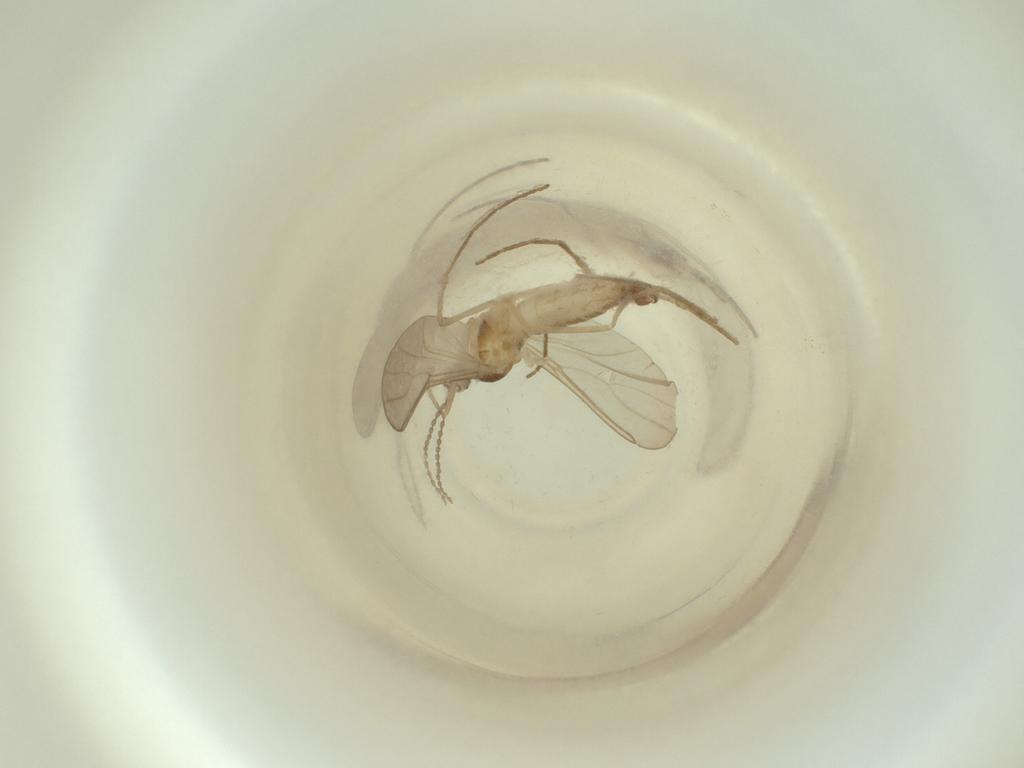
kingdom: Animalia
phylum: Arthropoda
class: Insecta
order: Diptera
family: Cecidomyiidae
